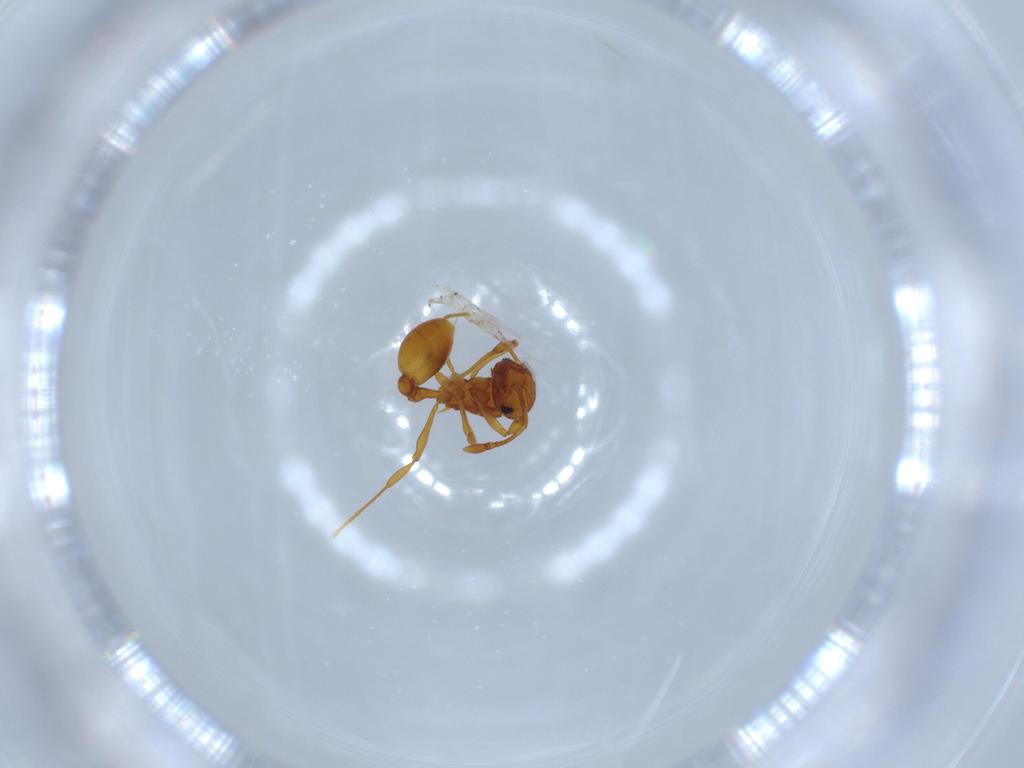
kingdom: Animalia
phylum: Arthropoda
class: Insecta
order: Hymenoptera
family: Formicidae
